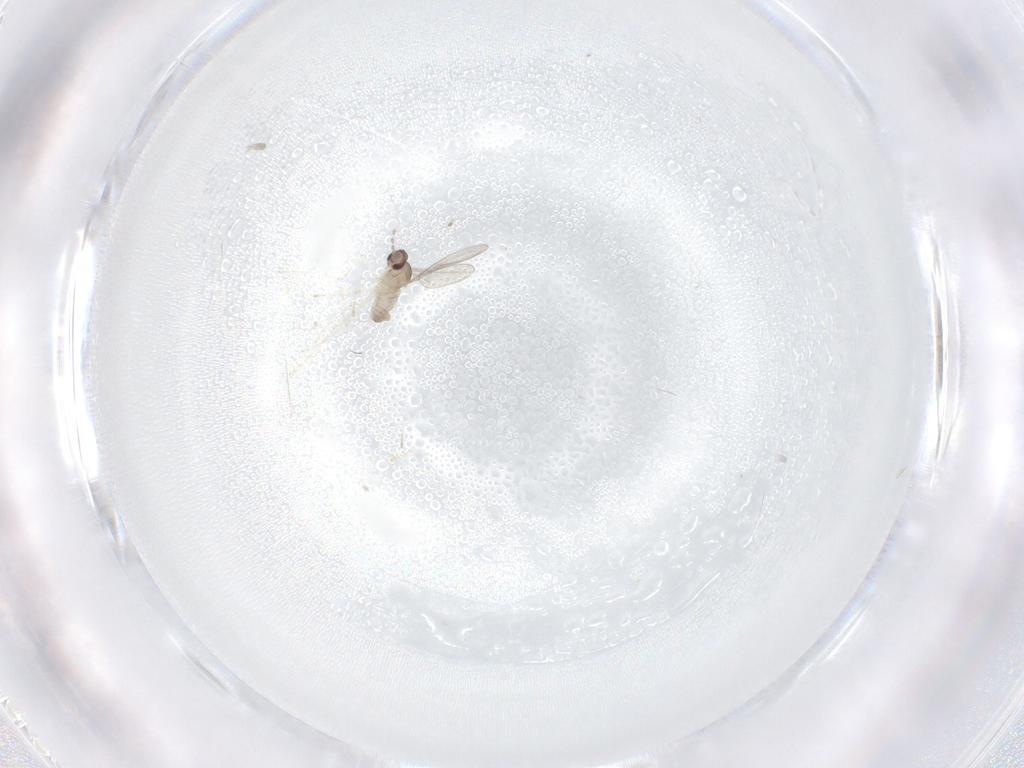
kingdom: Animalia
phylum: Arthropoda
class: Insecta
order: Diptera
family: Cecidomyiidae
